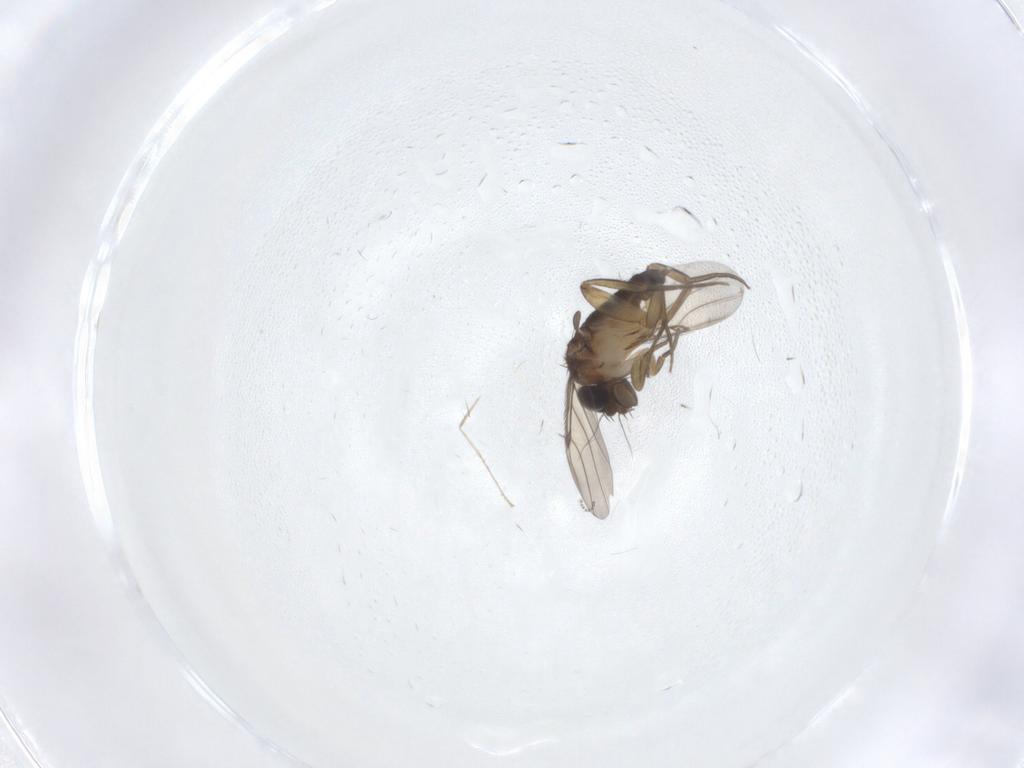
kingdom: Animalia
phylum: Arthropoda
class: Insecta
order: Diptera
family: Phoridae
